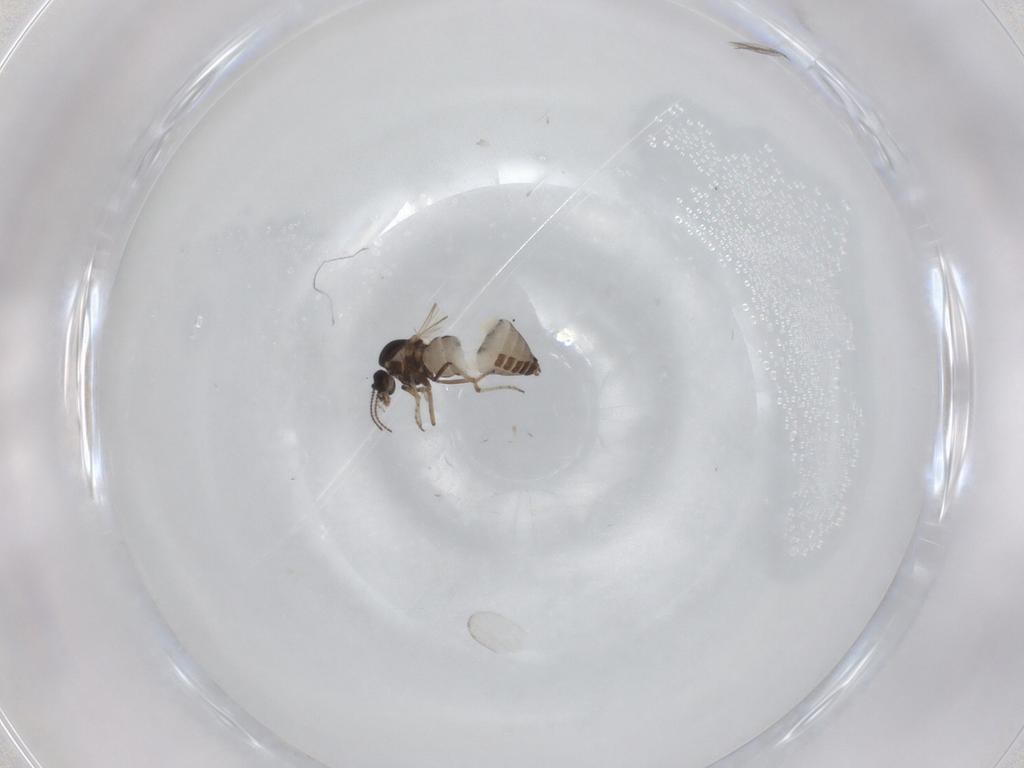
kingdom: Animalia
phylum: Arthropoda
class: Insecta
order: Diptera
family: Ceratopogonidae
